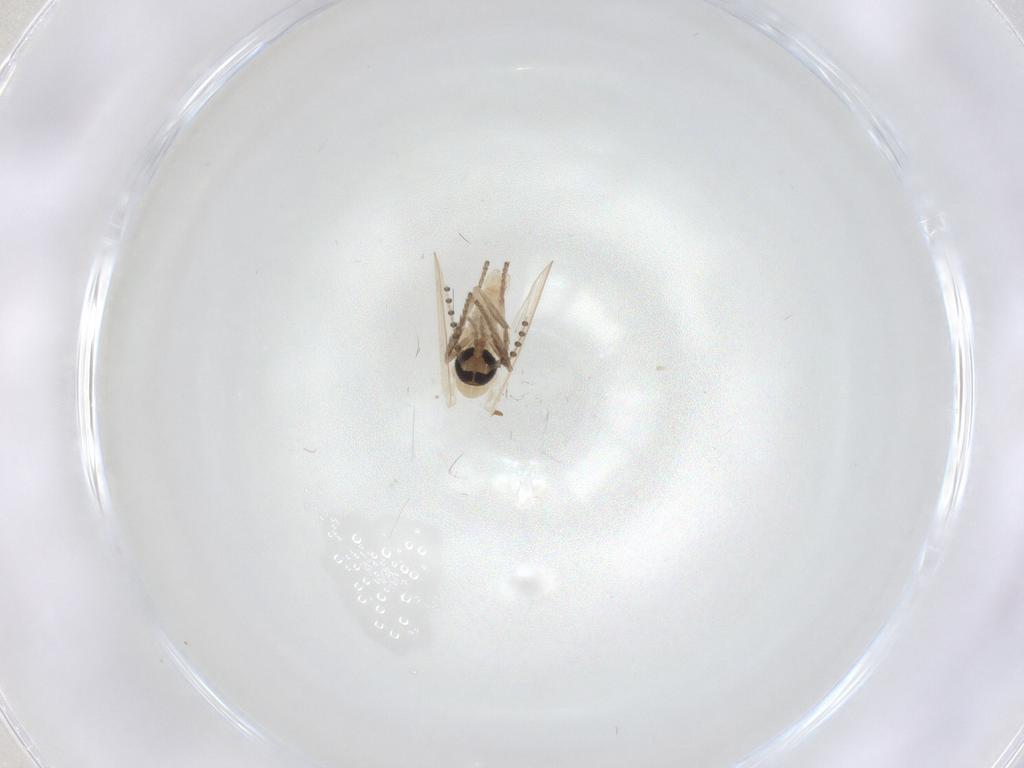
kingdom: Animalia
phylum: Arthropoda
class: Insecta
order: Diptera
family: Psychodidae
